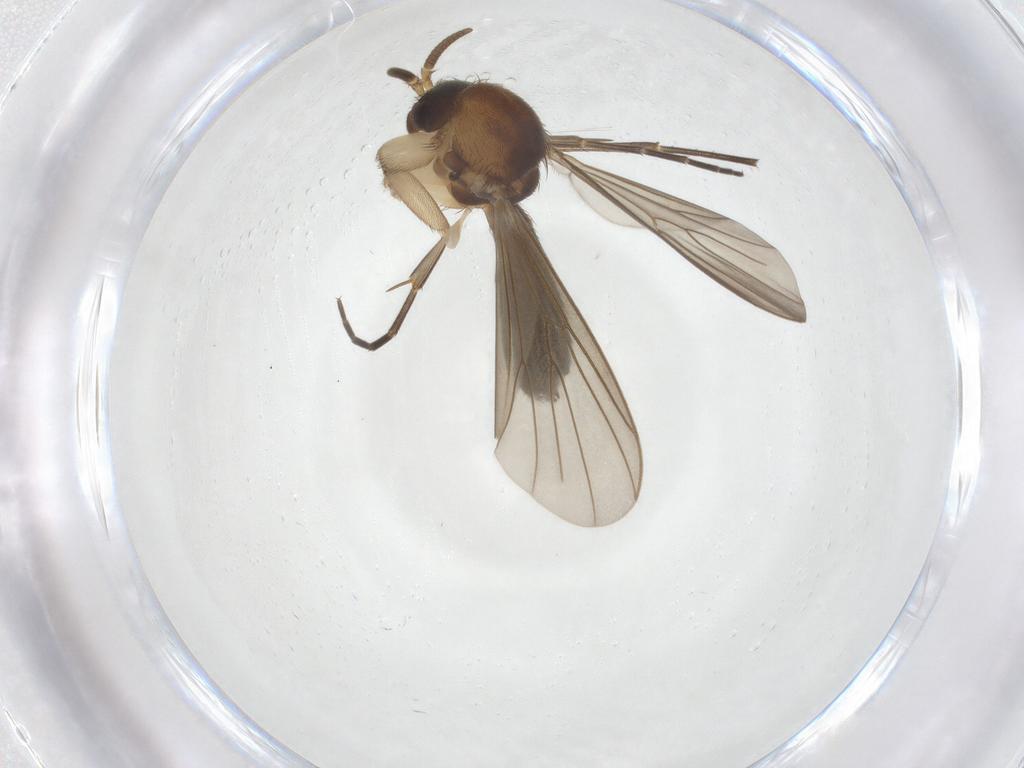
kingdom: Animalia
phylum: Arthropoda
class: Insecta
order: Diptera
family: Mycetophilidae
